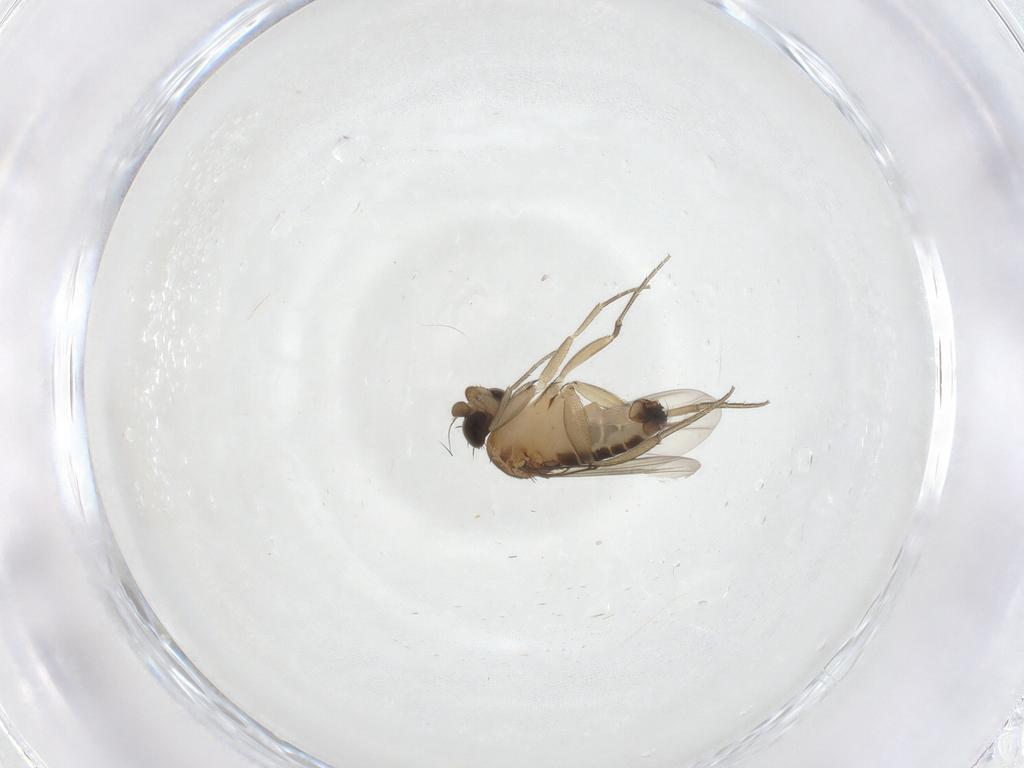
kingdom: Animalia
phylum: Arthropoda
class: Insecta
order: Diptera
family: Phoridae
